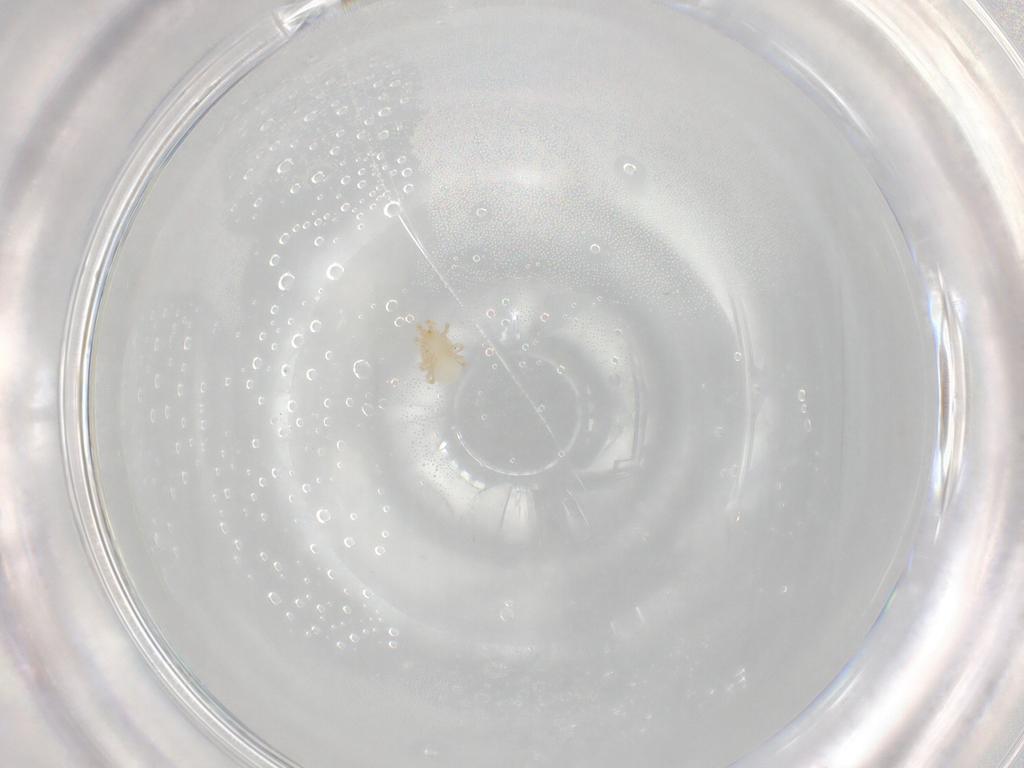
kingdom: Animalia
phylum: Arthropoda
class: Arachnida
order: Mesostigmata
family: Melicharidae
